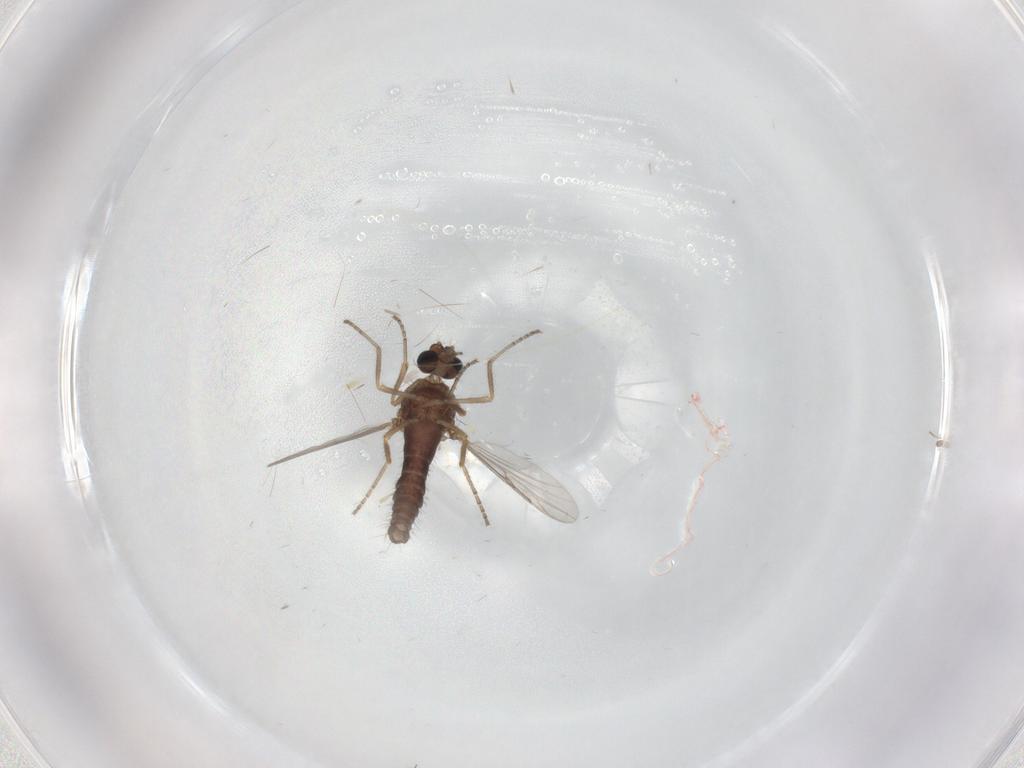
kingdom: Animalia
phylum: Arthropoda
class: Insecta
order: Diptera
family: Ceratopogonidae
